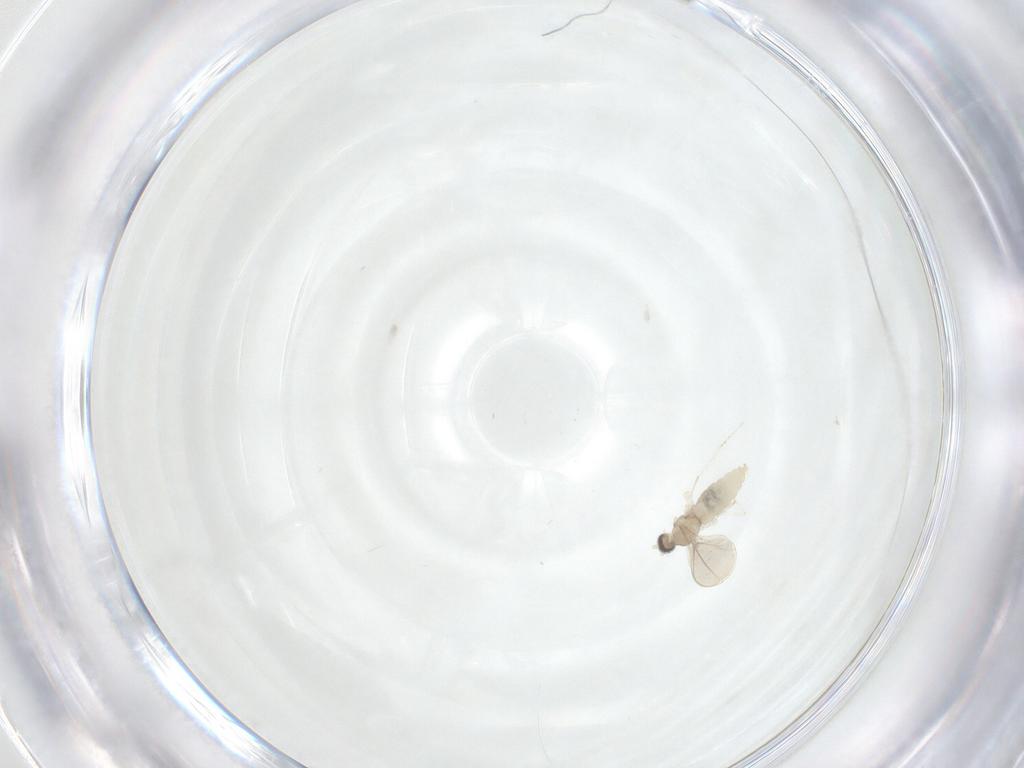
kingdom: Animalia
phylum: Arthropoda
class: Insecta
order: Diptera
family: Cecidomyiidae
